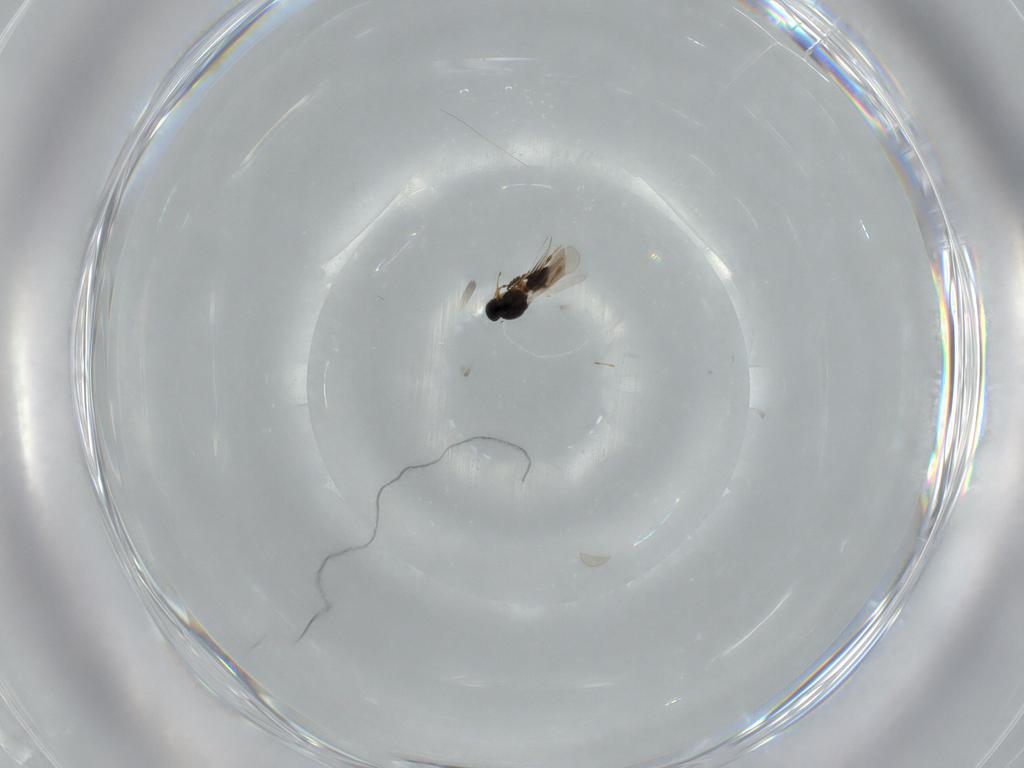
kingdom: Animalia
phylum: Arthropoda
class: Insecta
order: Hymenoptera
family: Platygastridae
